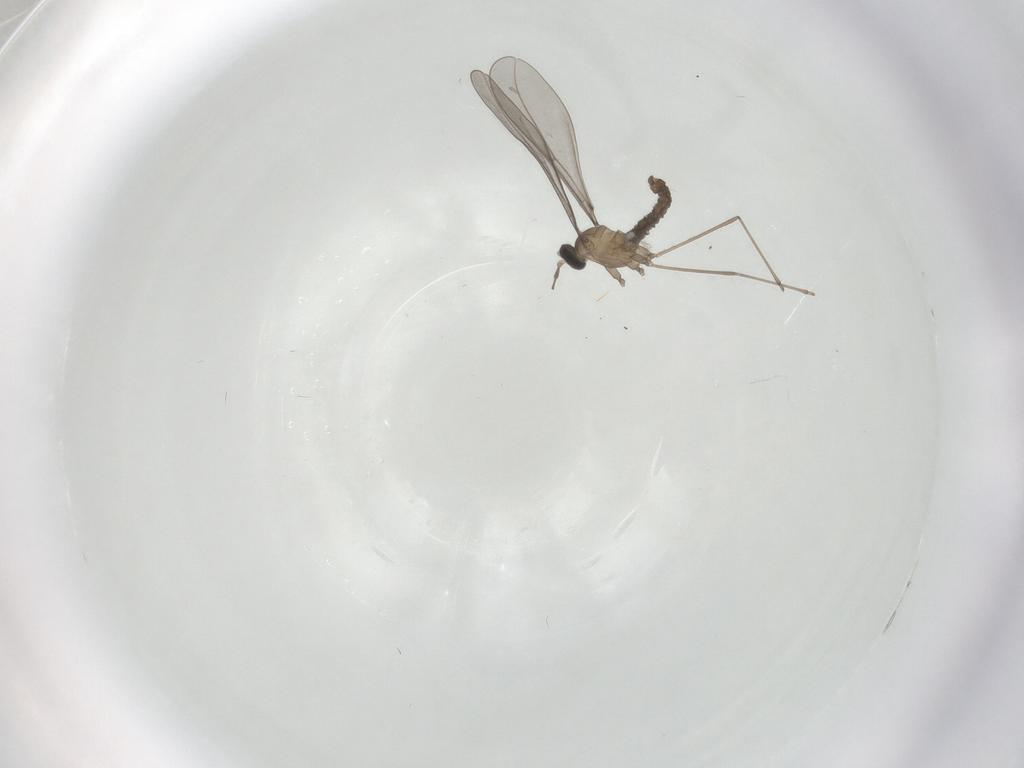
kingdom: Animalia
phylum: Arthropoda
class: Insecta
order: Diptera
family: Cecidomyiidae
